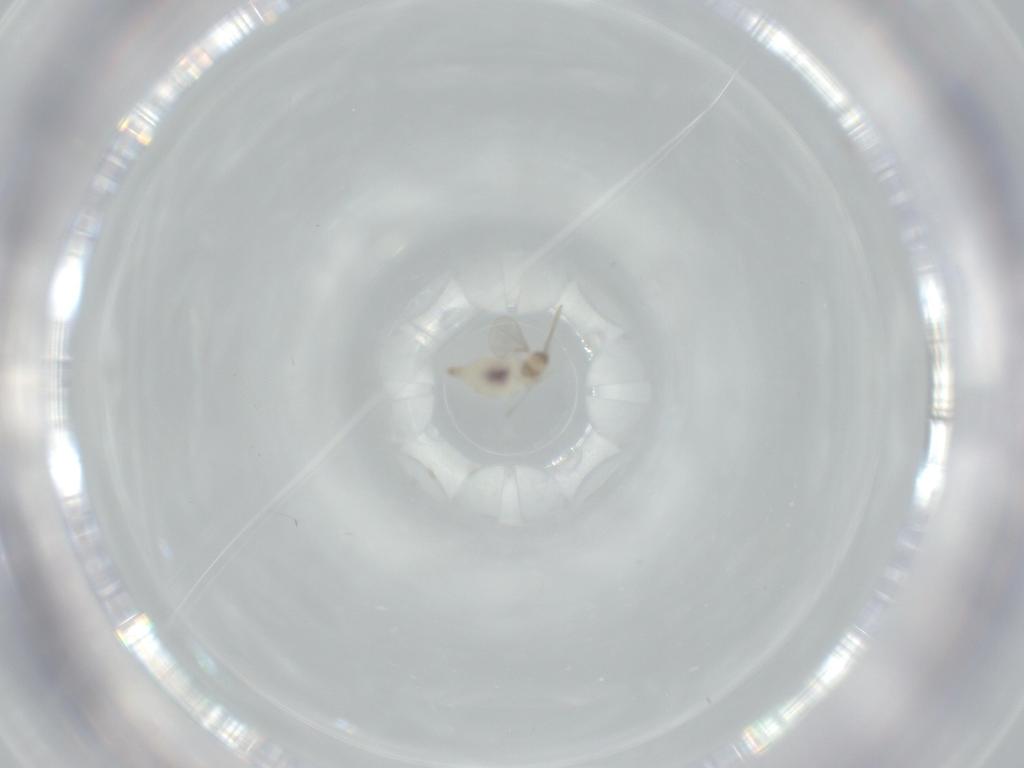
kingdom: Animalia
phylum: Arthropoda
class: Insecta
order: Diptera
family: Cecidomyiidae
